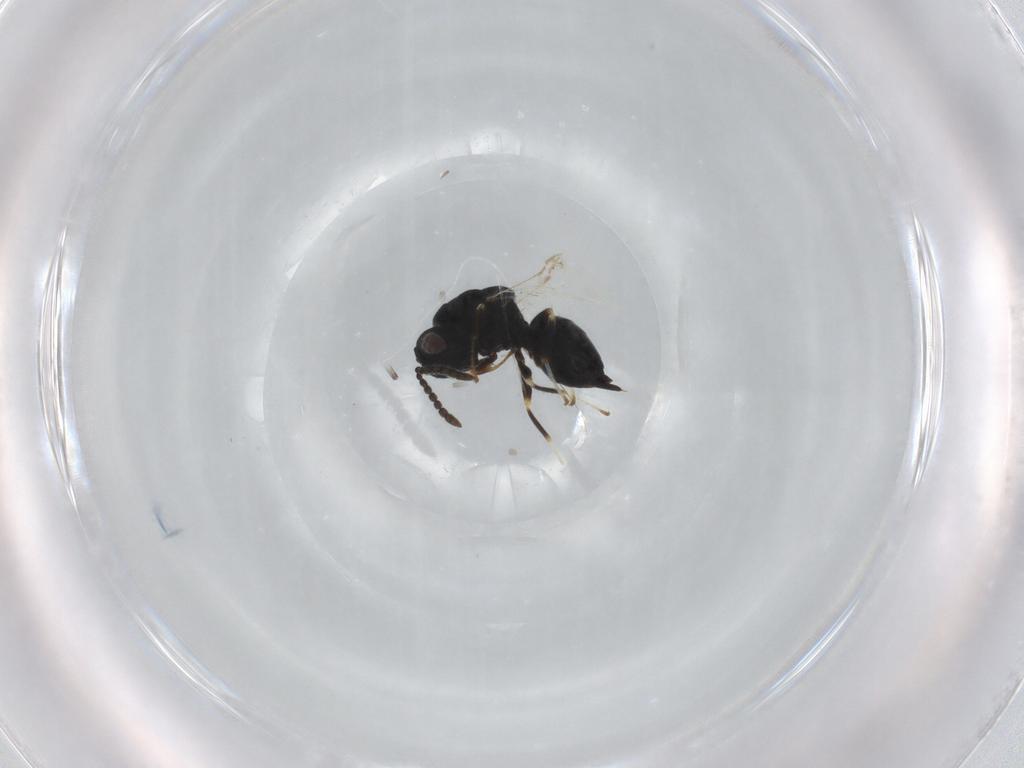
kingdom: Animalia
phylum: Arthropoda
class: Insecta
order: Hymenoptera
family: Eurytomidae
